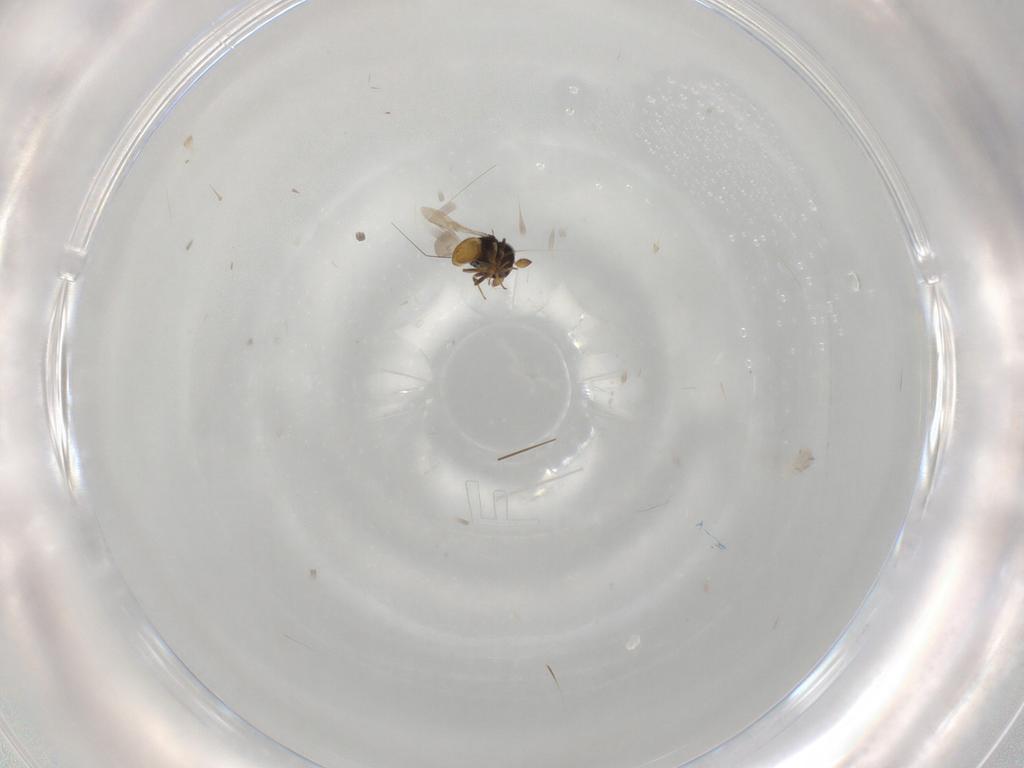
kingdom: Animalia
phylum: Arthropoda
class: Insecta
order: Hymenoptera
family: Scelionidae
